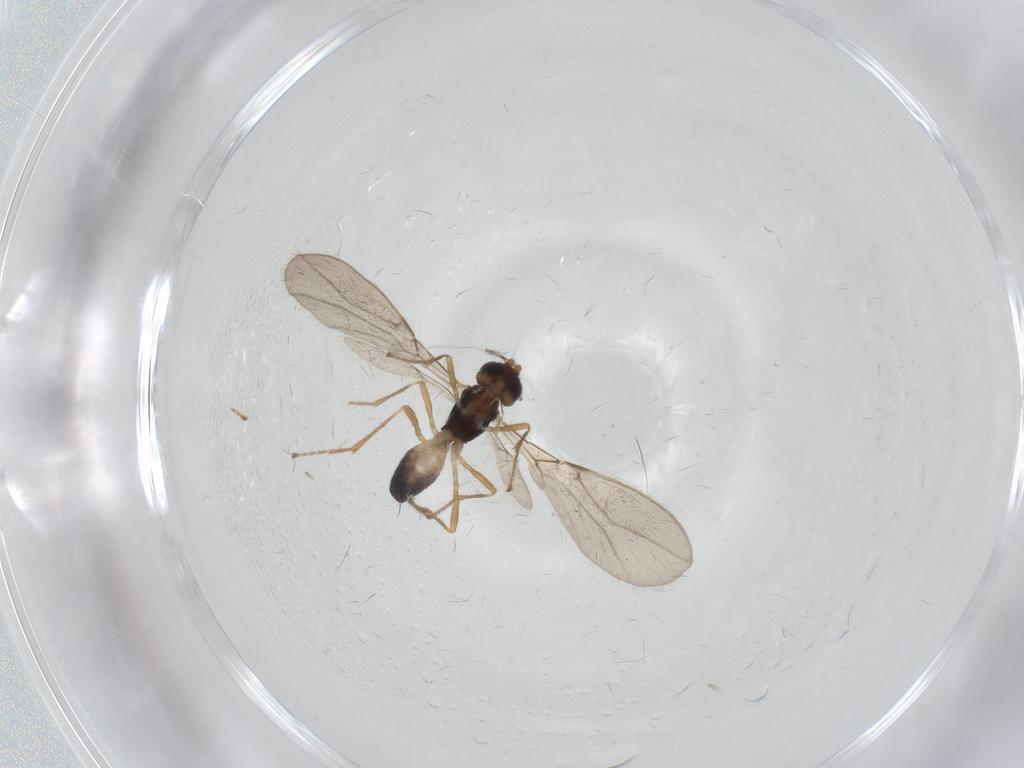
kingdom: Animalia
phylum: Arthropoda
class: Insecta
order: Hymenoptera
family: Braconidae
